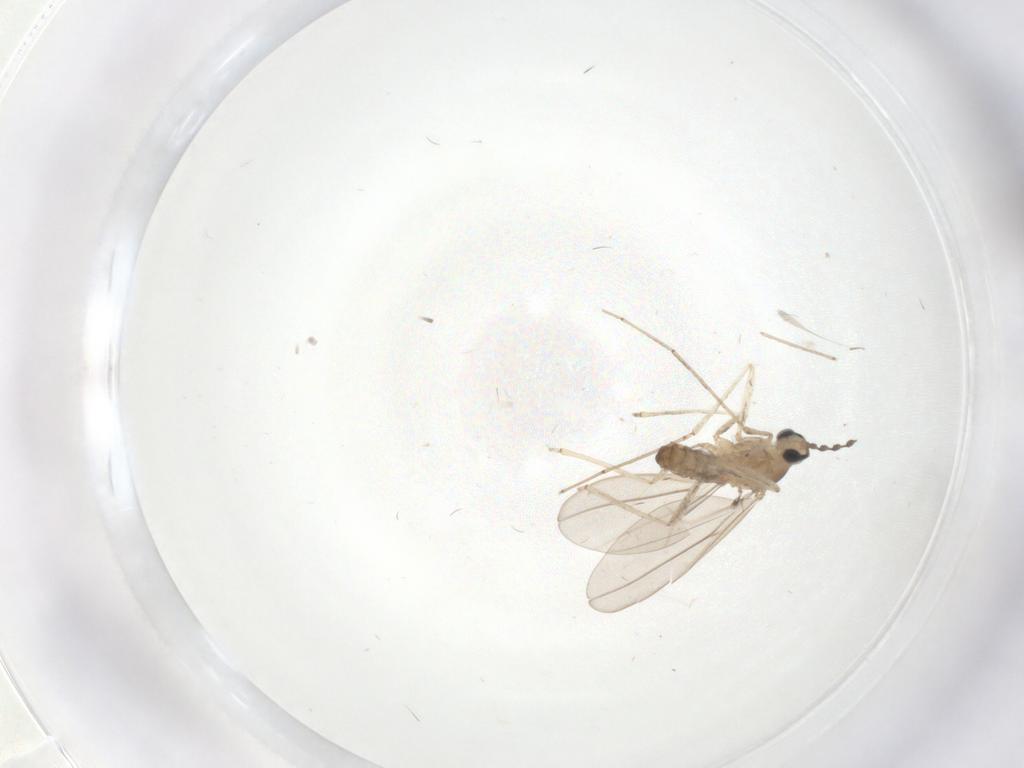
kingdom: Animalia
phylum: Arthropoda
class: Insecta
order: Diptera
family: Cecidomyiidae
